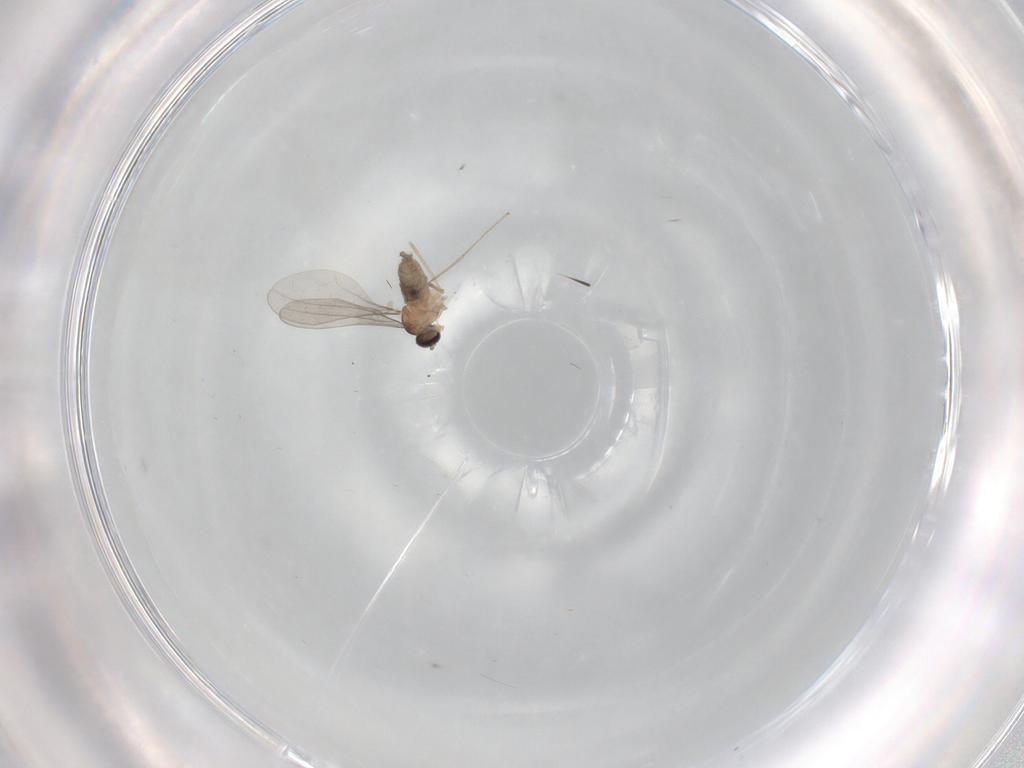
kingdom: Animalia
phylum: Arthropoda
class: Insecta
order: Diptera
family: Cecidomyiidae
